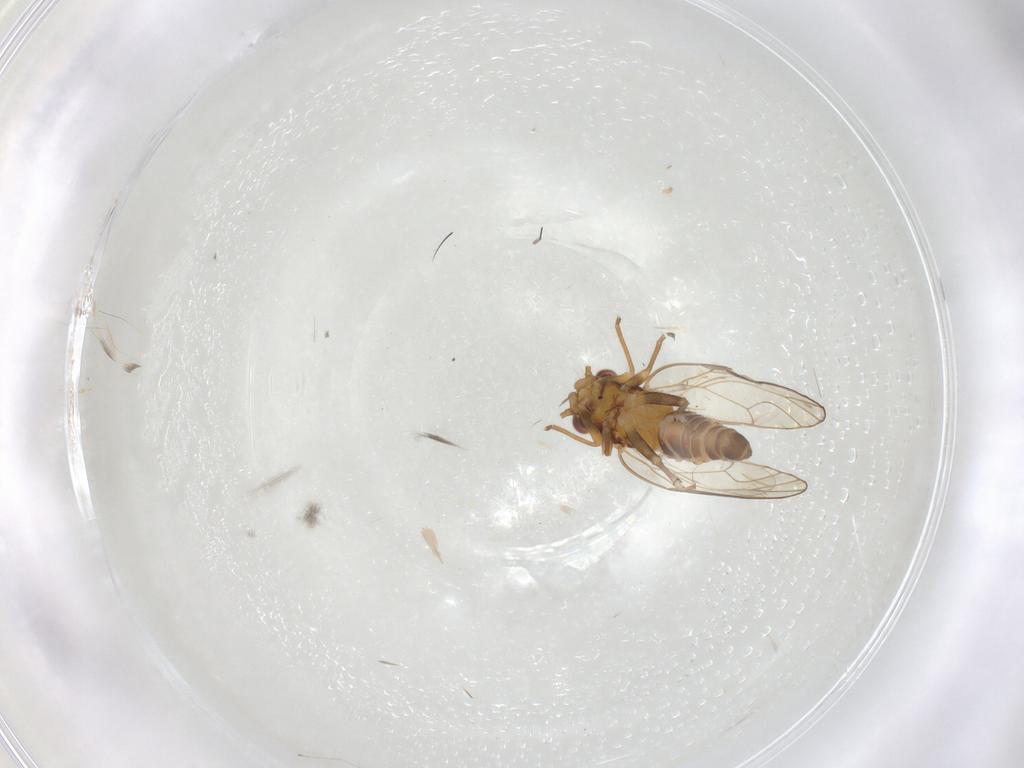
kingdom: Animalia
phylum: Arthropoda
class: Insecta
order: Hemiptera
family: Psyllidae
